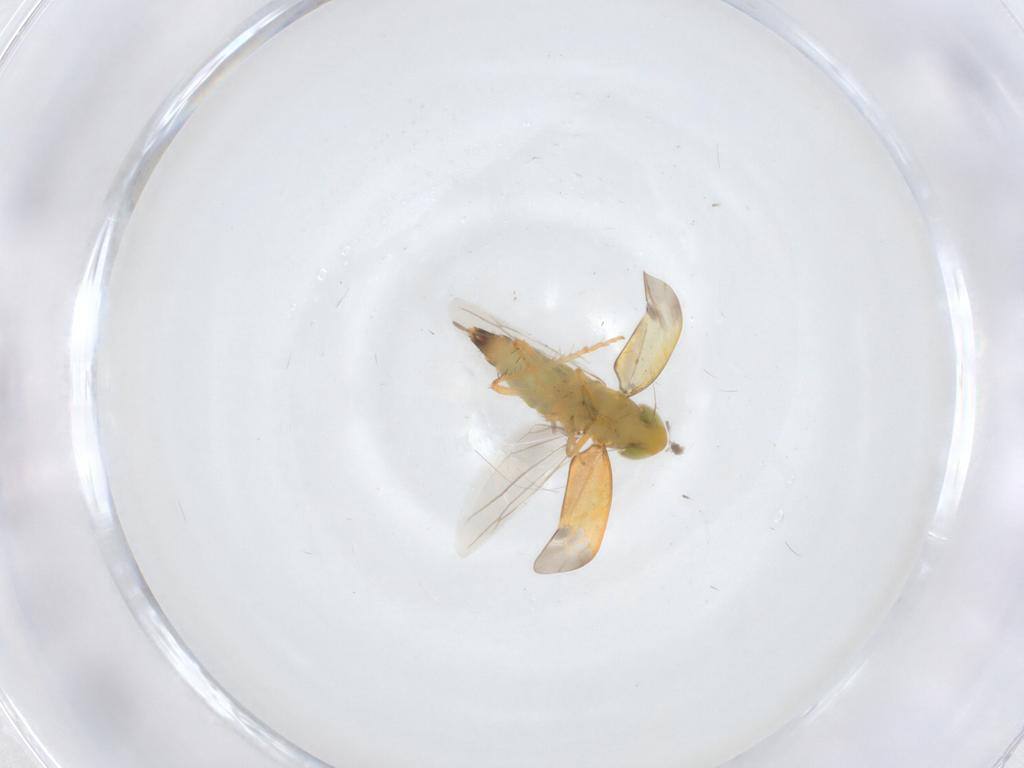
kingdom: Animalia
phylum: Arthropoda
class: Insecta
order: Hemiptera
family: Cicadellidae
